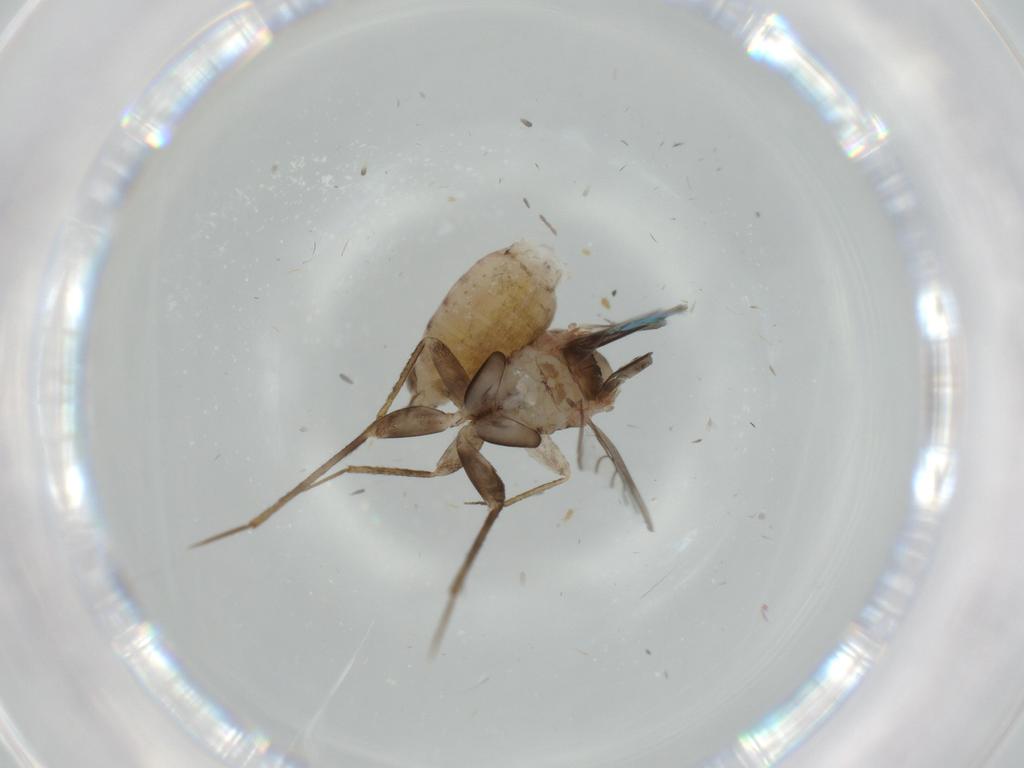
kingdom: Animalia
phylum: Arthropoda
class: Insecta
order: Psocodea
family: Lepidopsocidae
